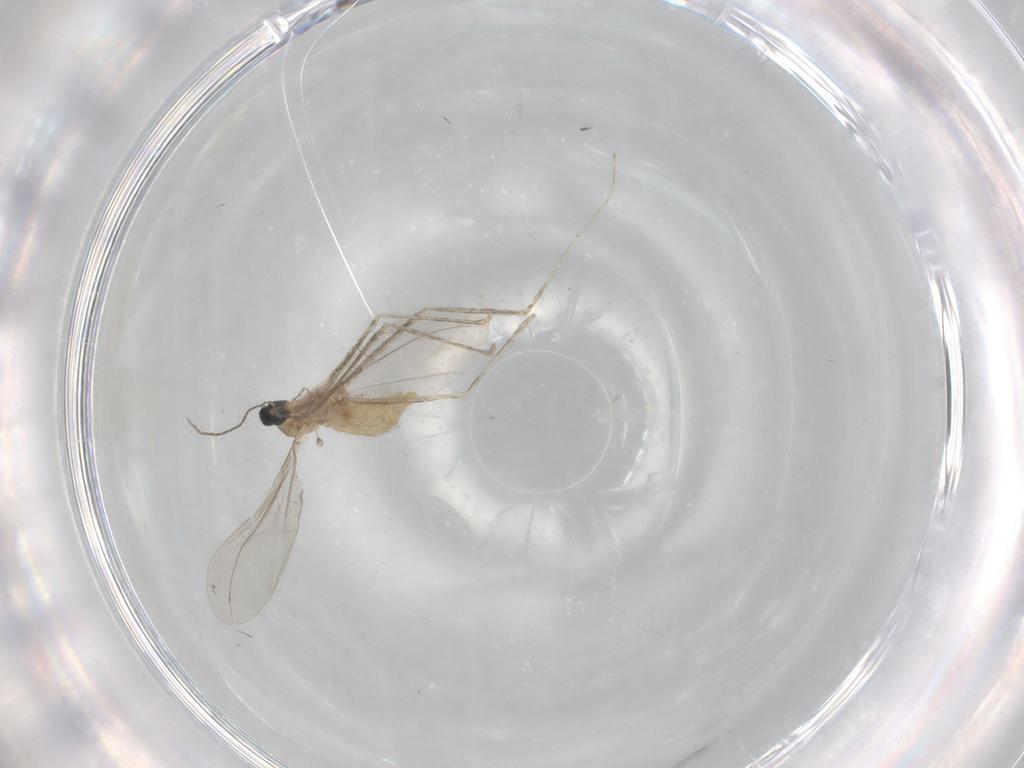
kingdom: Animalia
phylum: Arthropoda
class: Insecta
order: Diptera
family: Cecidomyiidae
